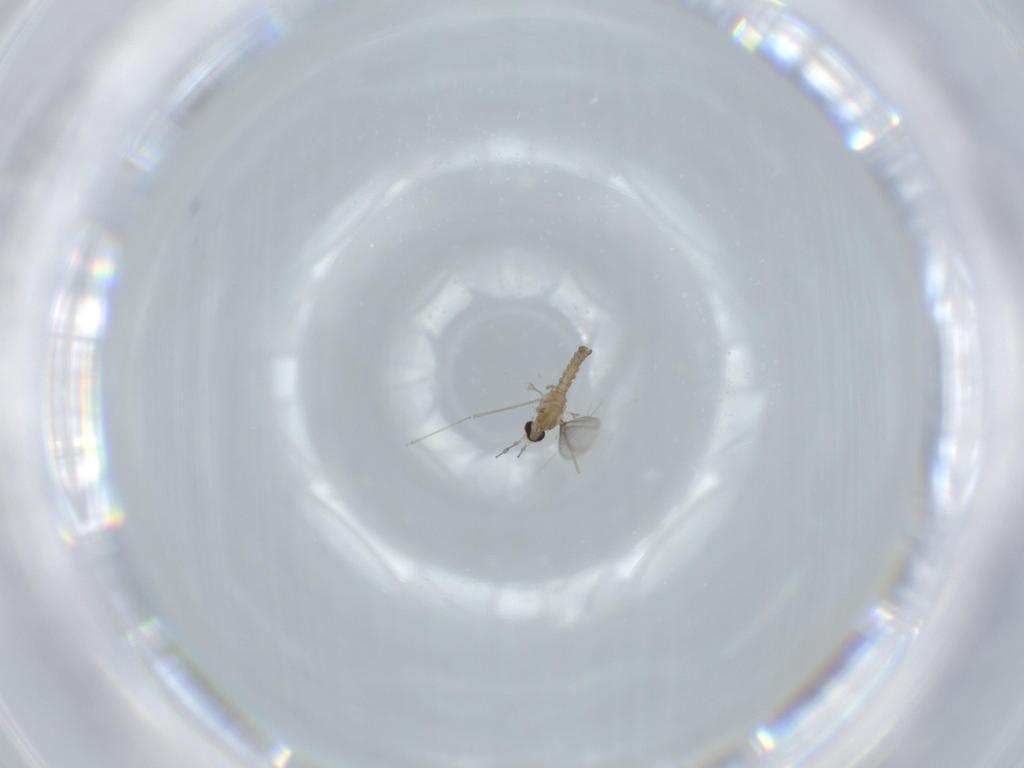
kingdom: Animalia
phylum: Arthropoda
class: Insecta
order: Diptera
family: Cecidomyiidae
